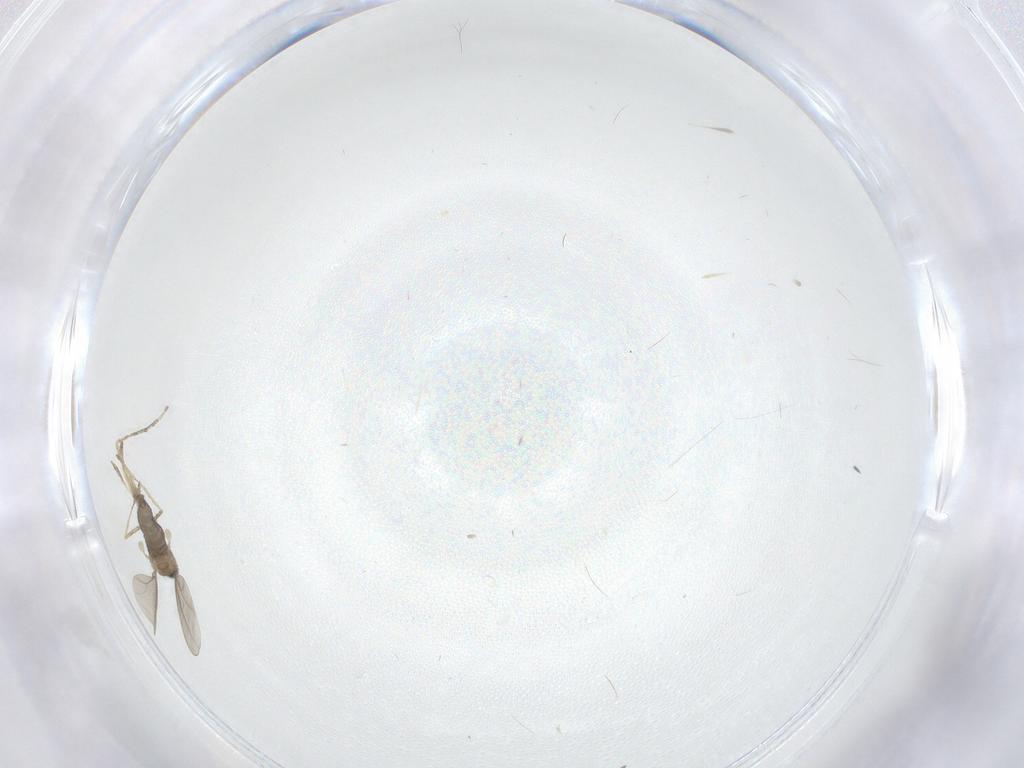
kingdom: Animalia
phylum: Arthropoda
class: Insecta
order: Diptera
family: Cecidomyiidae
